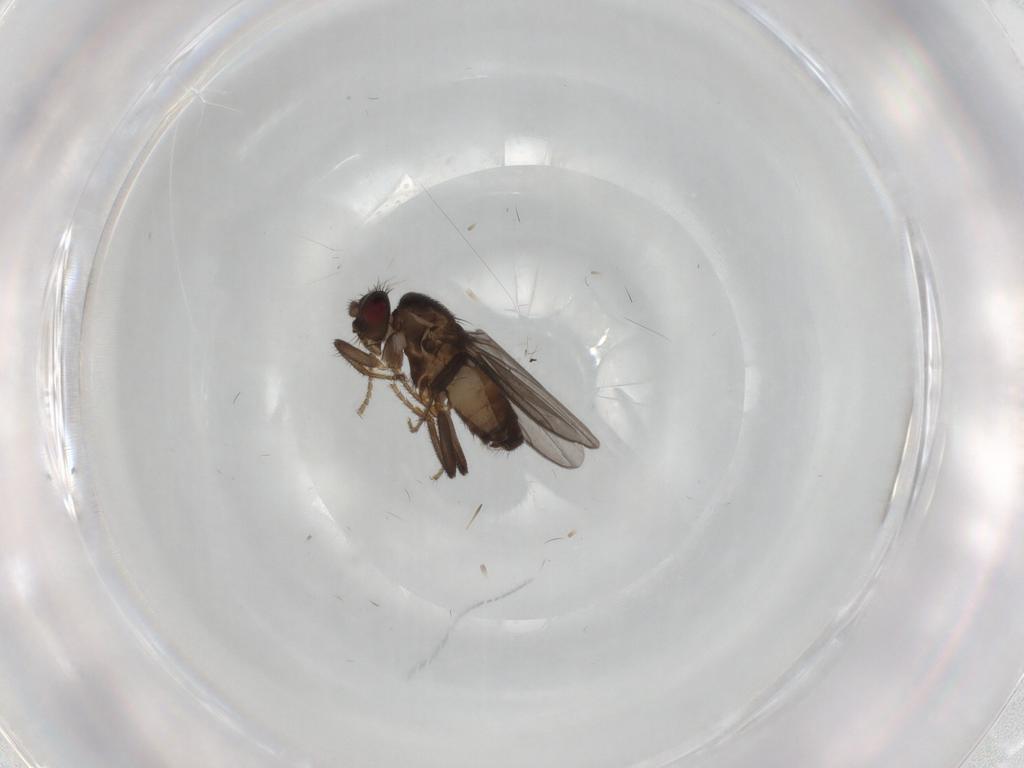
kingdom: Animalia
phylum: Arthropoda
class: Insecta
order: Diptera
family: Sphaeroceridae
